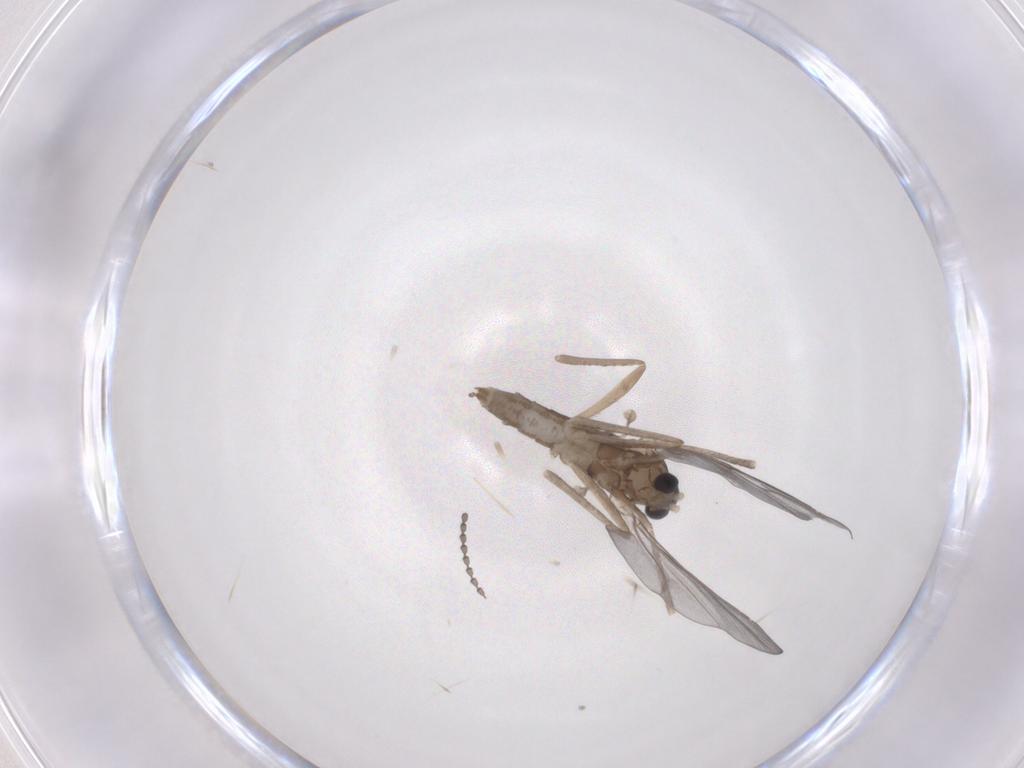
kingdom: Animalia
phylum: Arthropoda
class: Insecta
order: Diptera
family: Cecidomyiidae
